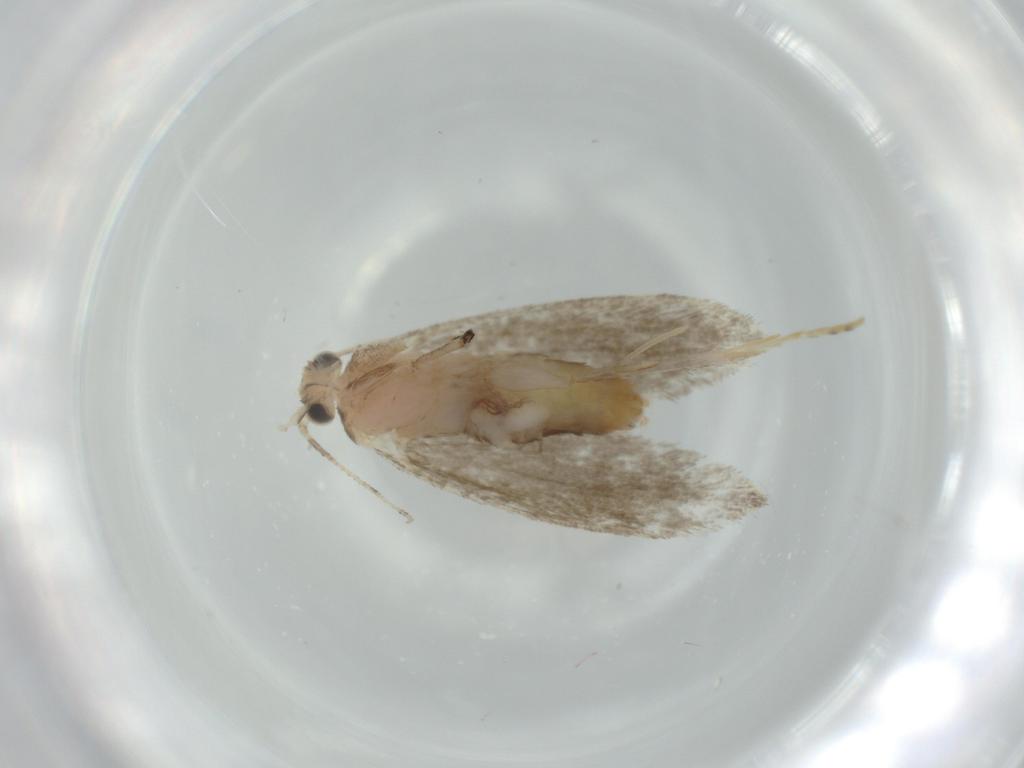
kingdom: Animalia
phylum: Arthropoda
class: Insecta
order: Lepidoptera
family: Tineidae
